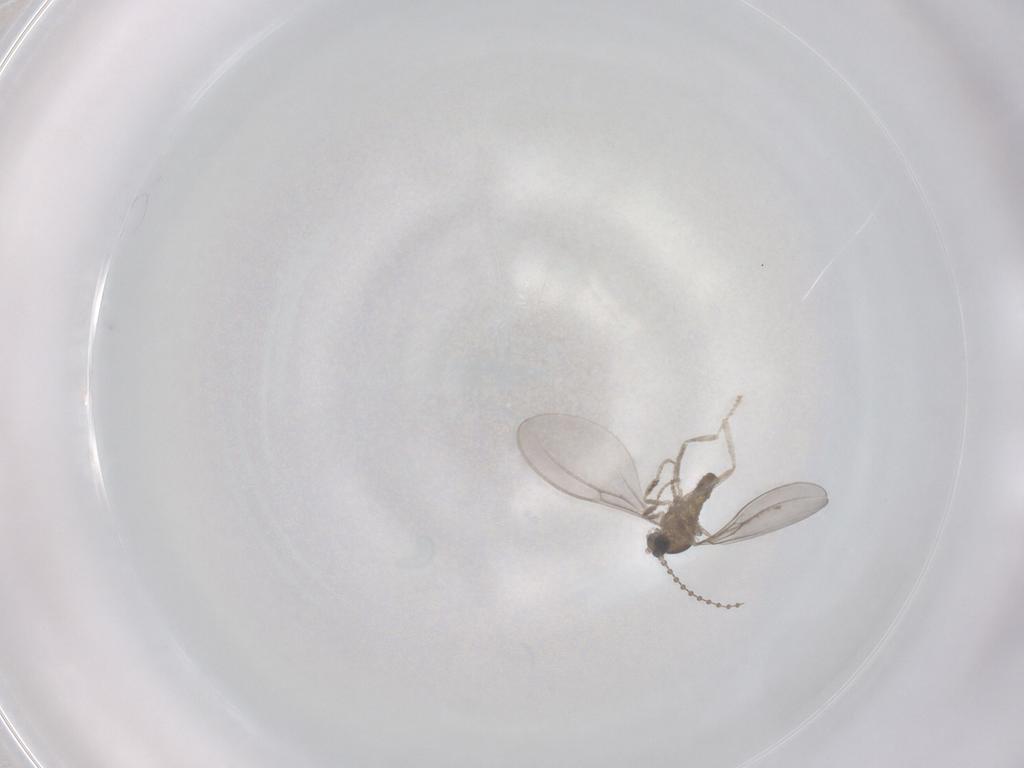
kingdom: Animalia
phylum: Arthropoda
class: Insecta
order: Diptera
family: Cecidomyiidae
